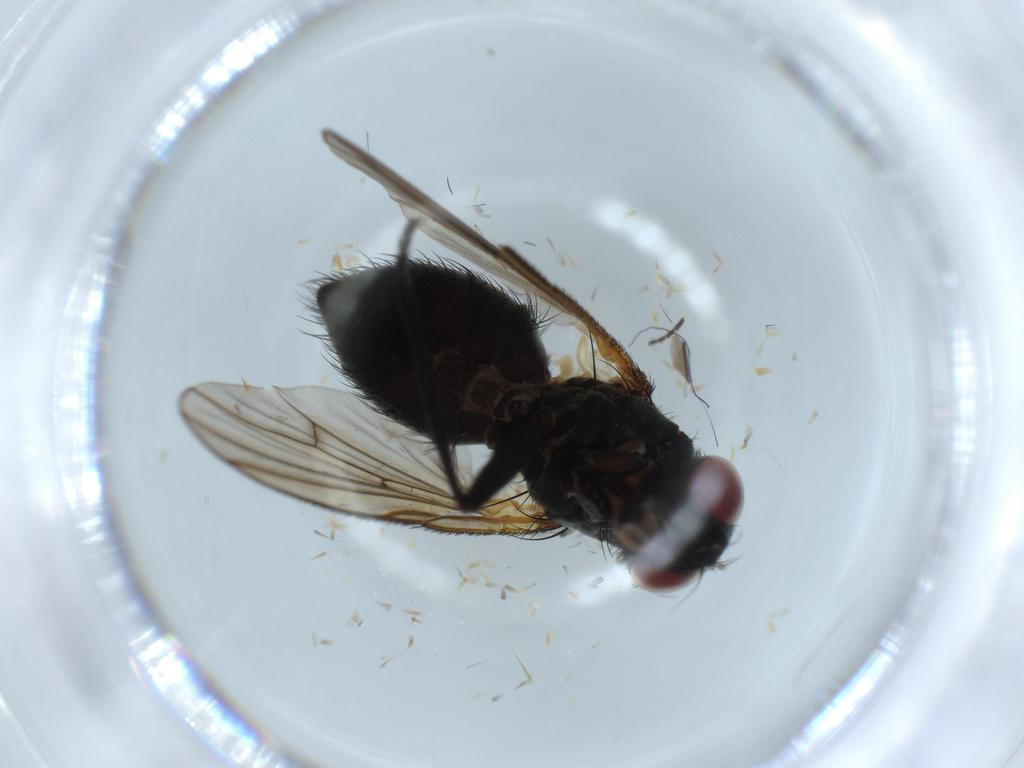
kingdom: Animalia
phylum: Arthropoda
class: Insecta
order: Diptera
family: Muscidae
